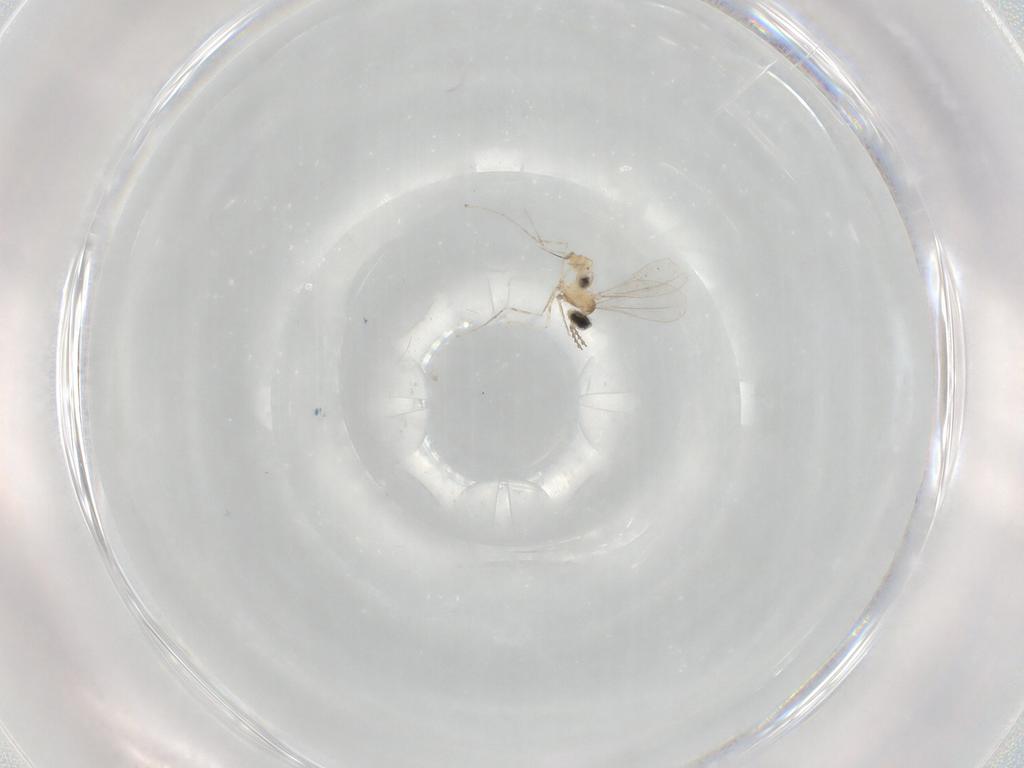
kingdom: Animalia
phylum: Arthropoda
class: Insecta
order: Diptera
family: Cecidomyiidae
